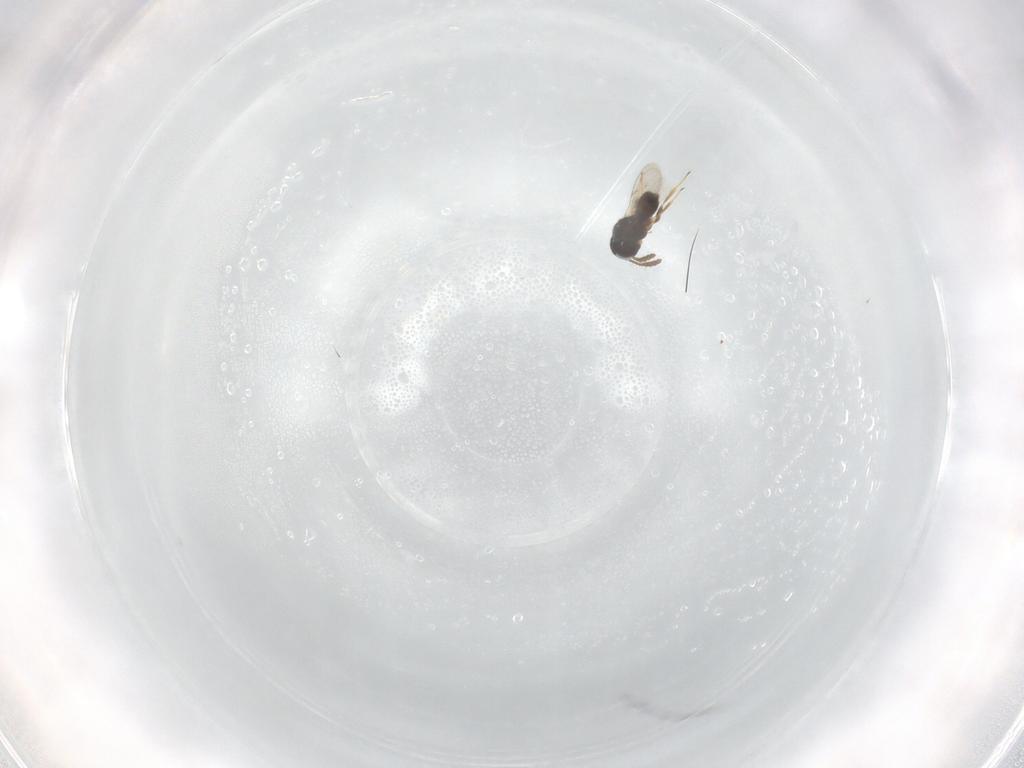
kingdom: Animalia
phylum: Arthropoda
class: Insecta
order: Hymenoptera
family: Scelionidae
